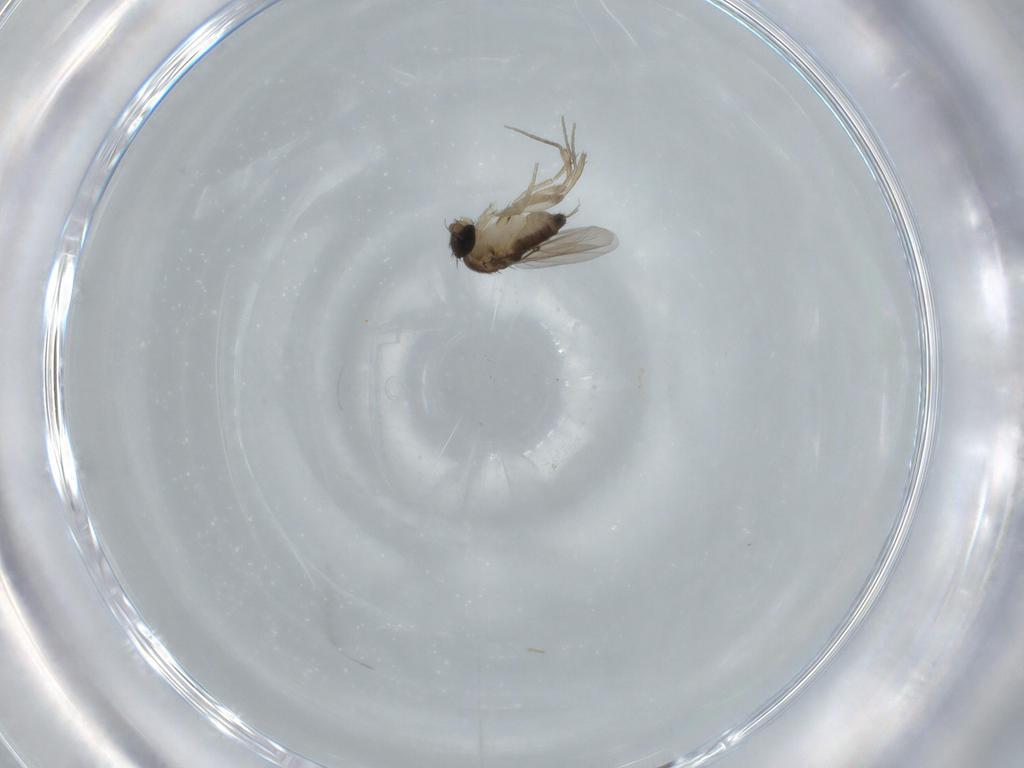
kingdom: Animalia
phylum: Arthropoda
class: Insecta
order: Diptera
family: Phoridae
